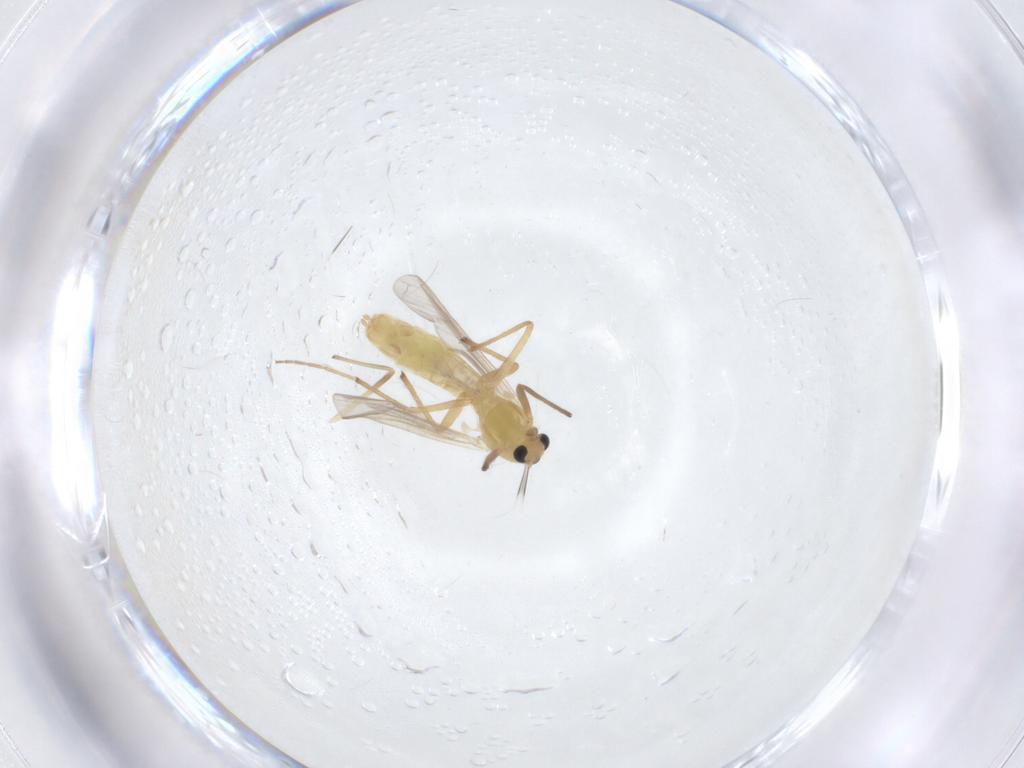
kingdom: Animalia
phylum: Arthropoda
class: Insecta
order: Diptera
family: Chironomidae
